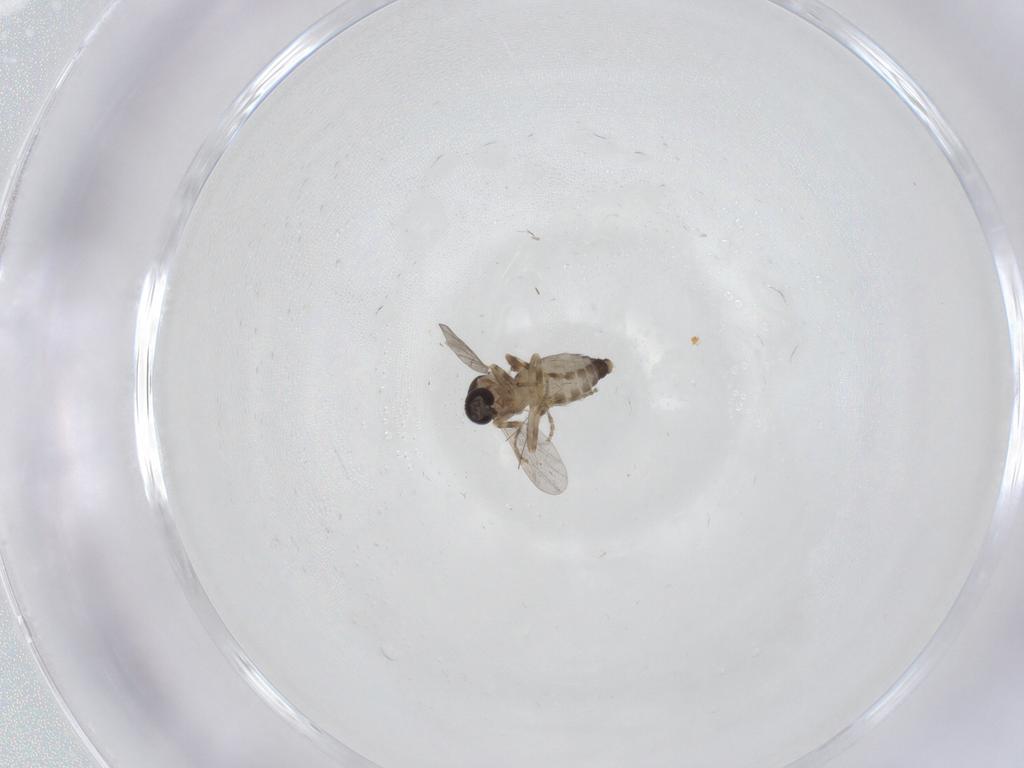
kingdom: Animalia
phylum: Arthropoda
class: Insecta
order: Diptera
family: Ceratopogonidae
